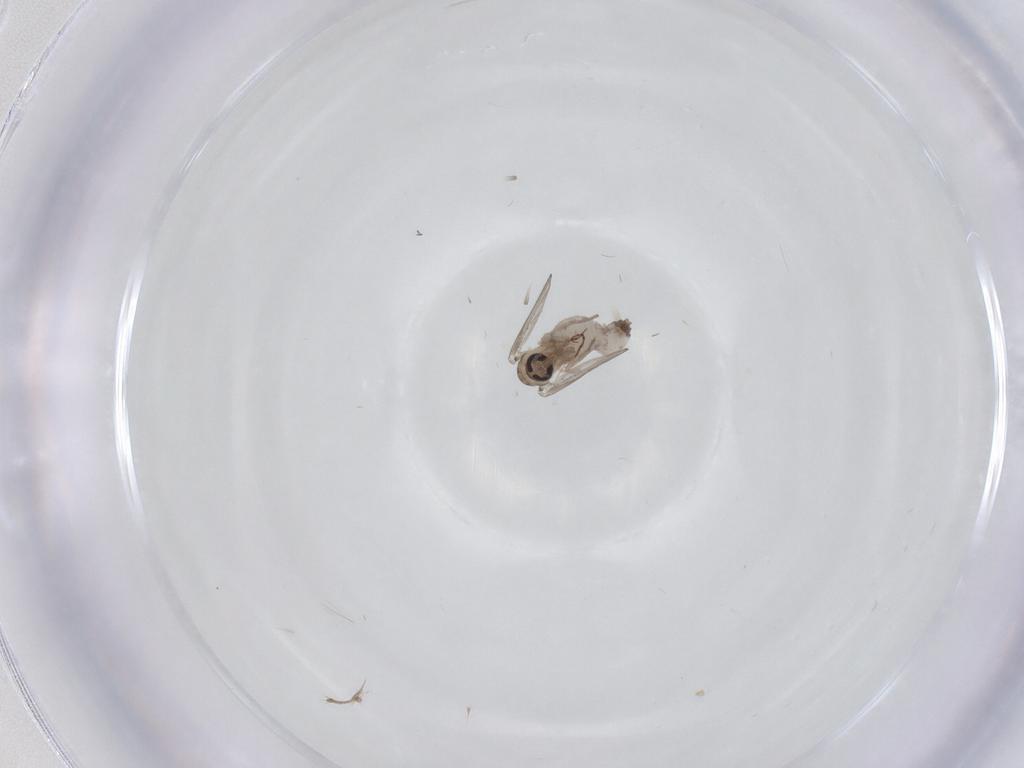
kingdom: Animalia
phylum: Arthropoda
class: Insecta
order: Diptera
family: Psychodidae
